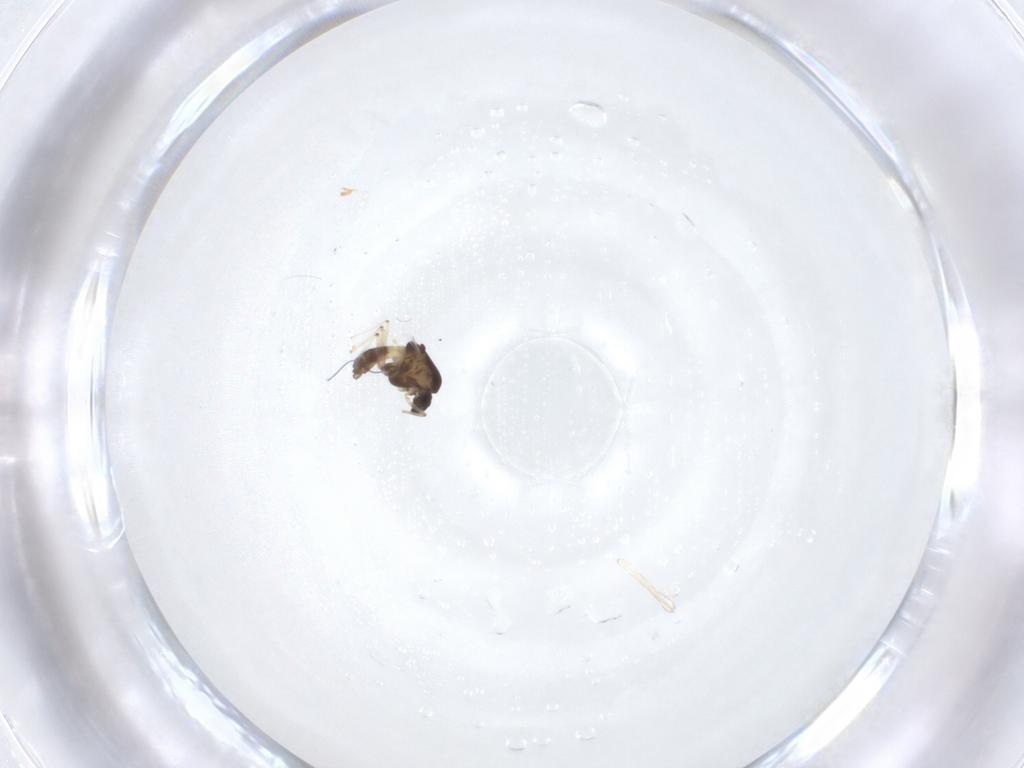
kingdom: Animalia
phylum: Arthropoda
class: Insecta
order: Diptera
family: Chironomidae
